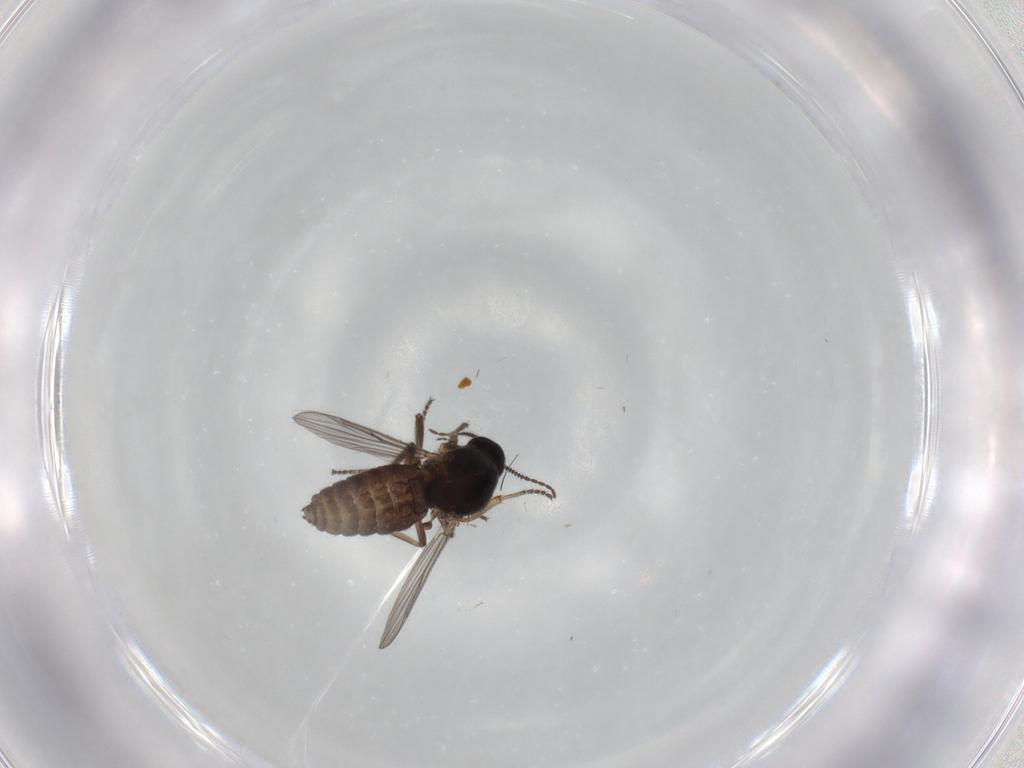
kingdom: Animalia
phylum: Arthropoda
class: Insecta
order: Diptera
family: Ceratopogonidae
